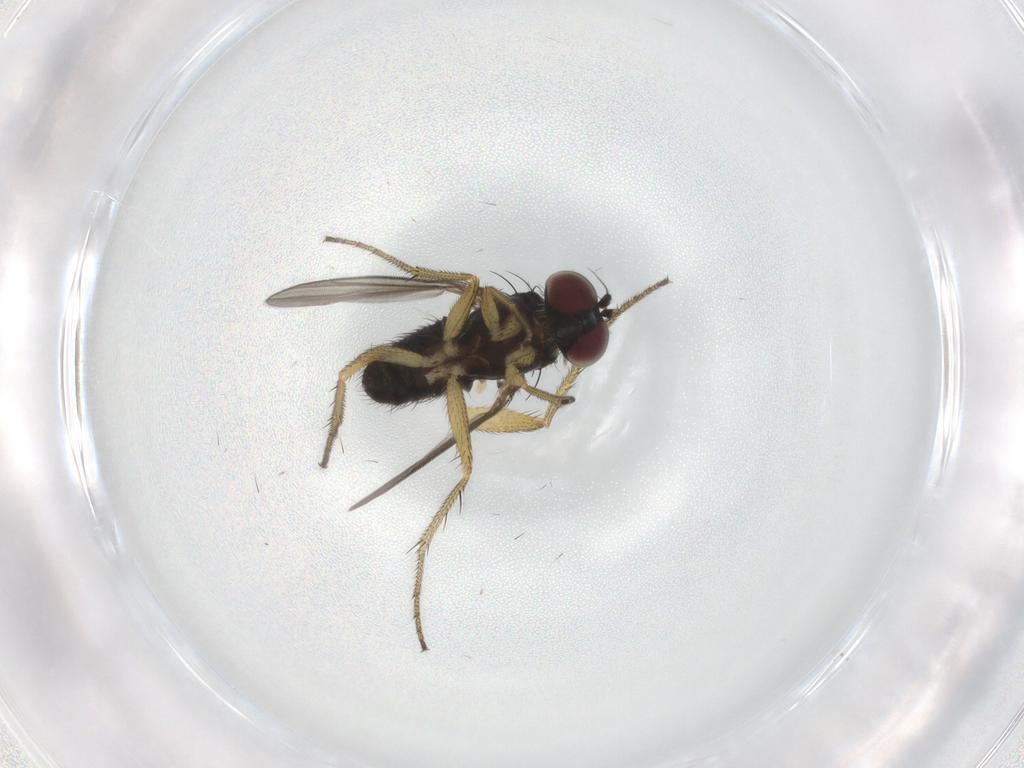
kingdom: Animalia
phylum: Arthropoda
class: Insecta
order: Diptera
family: Dolichopodidae
